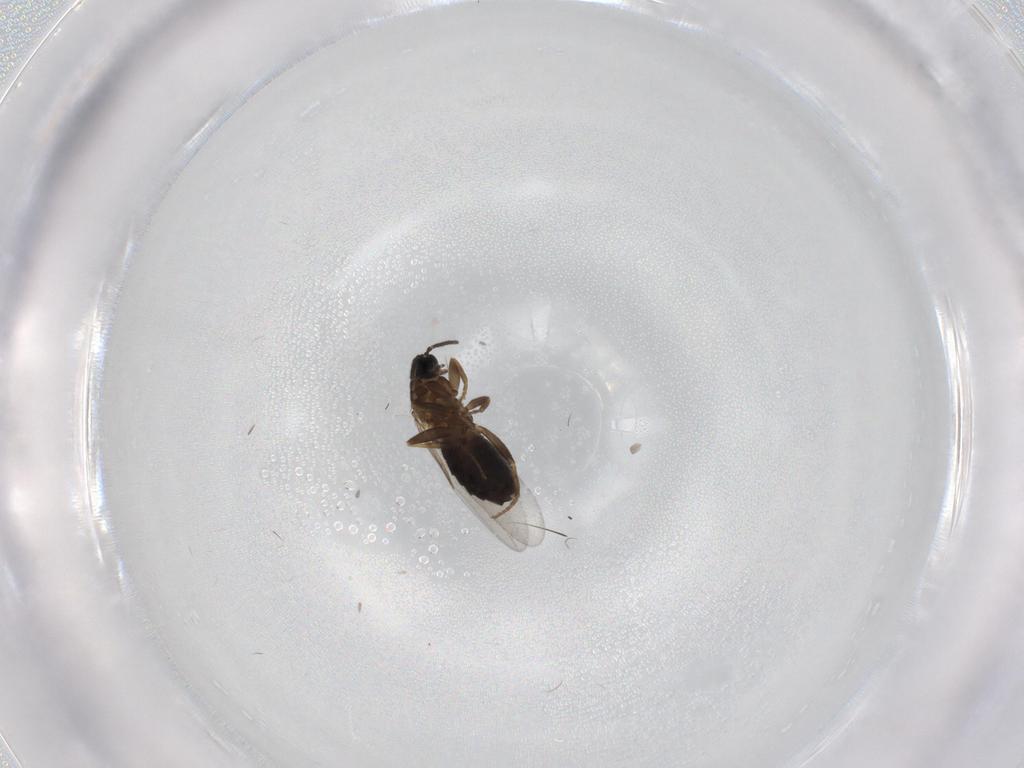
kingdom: Animalia
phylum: Arthropoda
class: Insecta
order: Diptera
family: Scatopsidae
